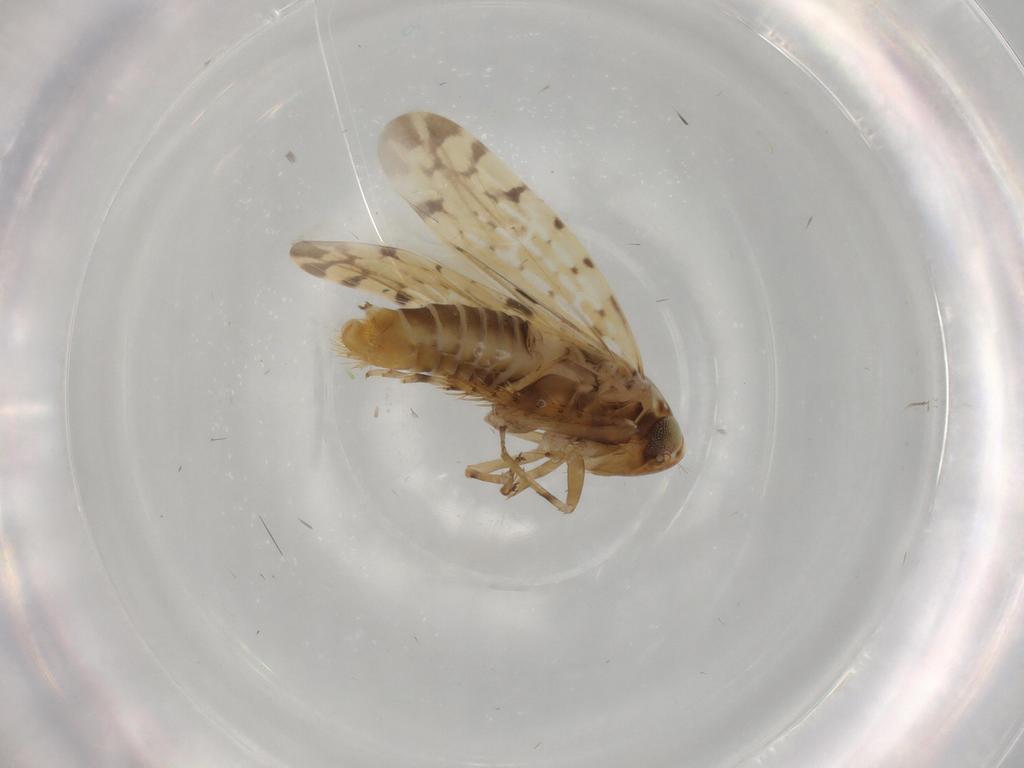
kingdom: Animalia
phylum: Arthropoda
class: Insecta
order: Hemiptera
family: Cicadellidae
